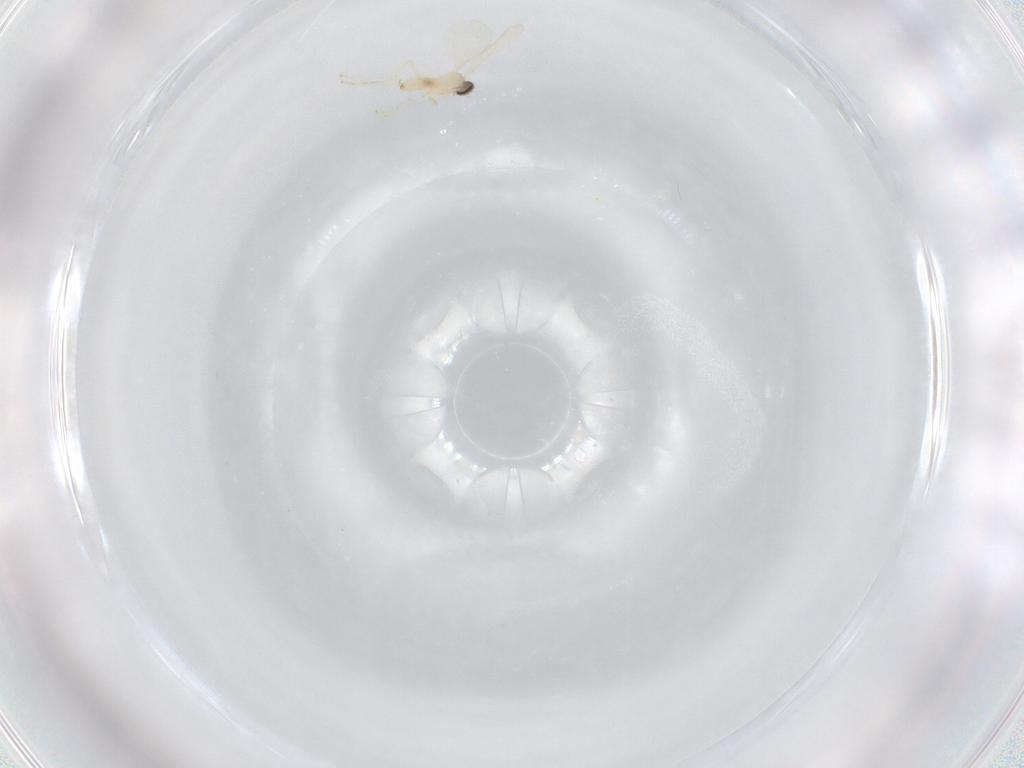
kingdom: Animalia
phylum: Arthropoda
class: Insecta
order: Diptera
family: Cecidomyiidae
